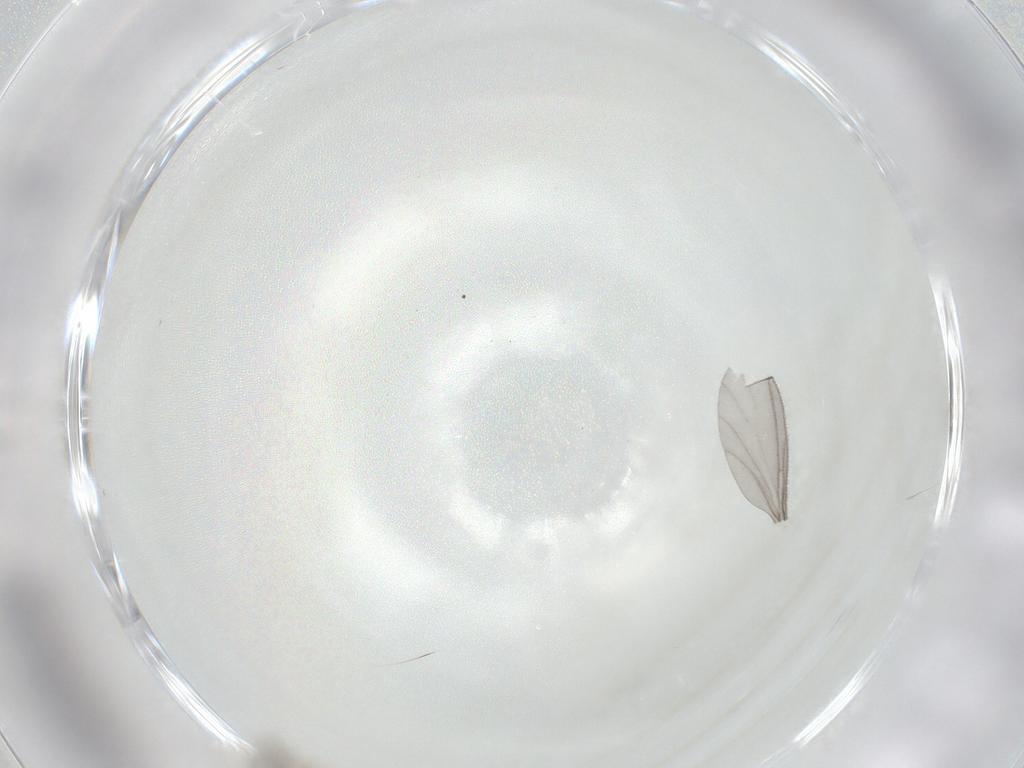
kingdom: Animalia
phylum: Arthropoda
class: Insecta
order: Diptera
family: Cecidomyiidae
